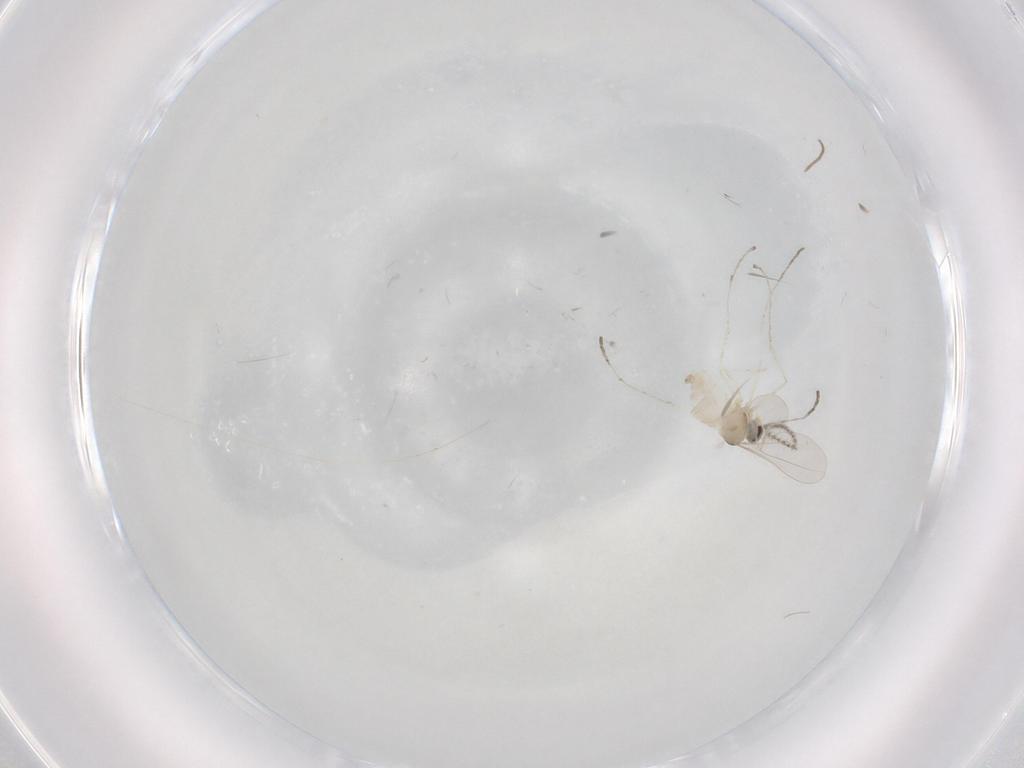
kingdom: Animalia
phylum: Arthropoda
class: Insecta
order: Diptera
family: Cecidomyiidae
